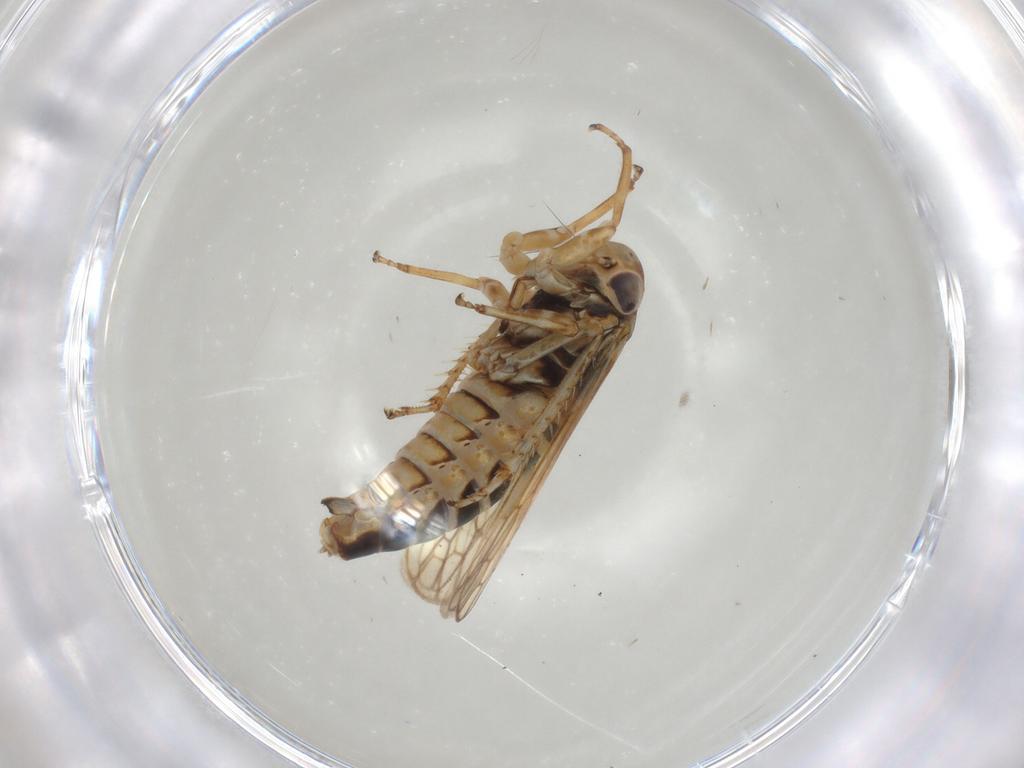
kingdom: Animalia
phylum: Arthropoda
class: Insecta
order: Hemiptera
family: Cicadellidae
